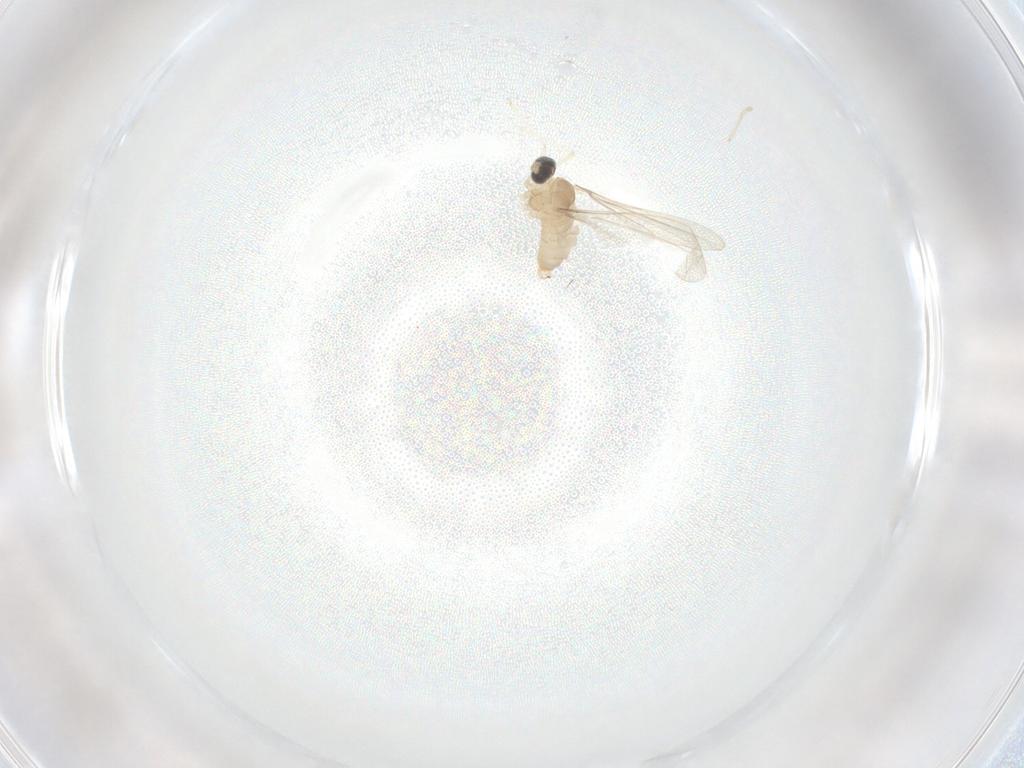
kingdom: Animalia
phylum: Arthropoda
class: Insecta
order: Diptera
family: Cecidomyiidae
